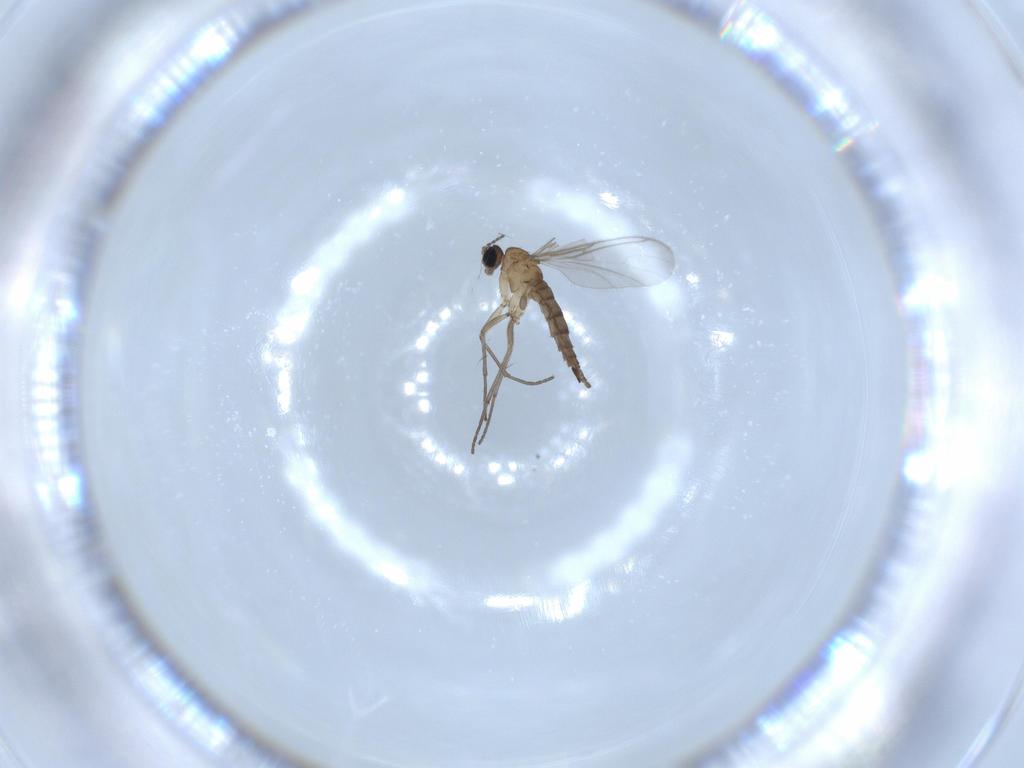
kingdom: Animalia
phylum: Arthropoda
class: Insecta
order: Diptera
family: Sciaridae
